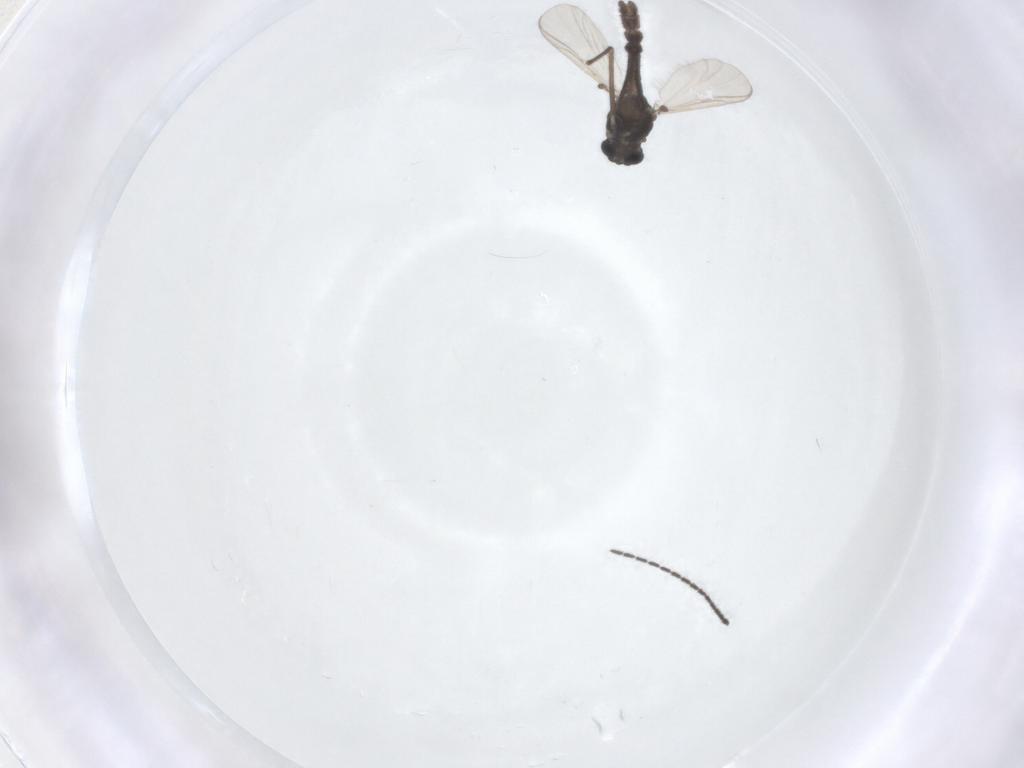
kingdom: Animalia
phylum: Arthropoda
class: Insecta
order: Diptera
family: Chironomidae
